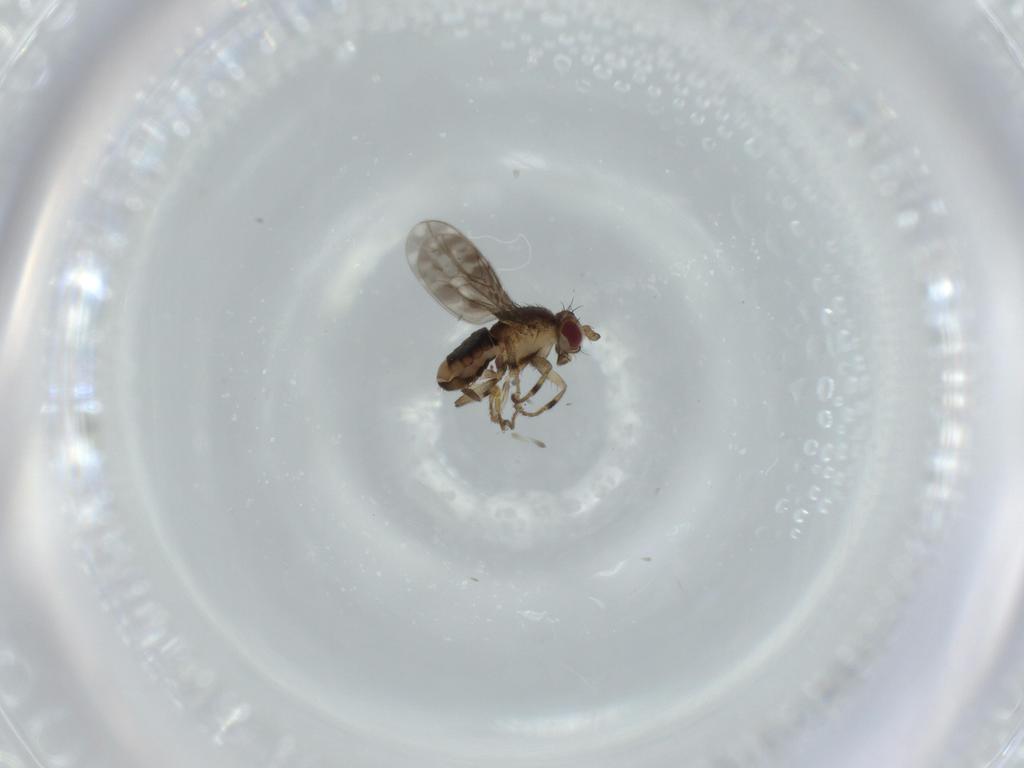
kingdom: Animalia
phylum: Arthropoda
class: Insecta
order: Diptera
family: Sphaeroceridae
